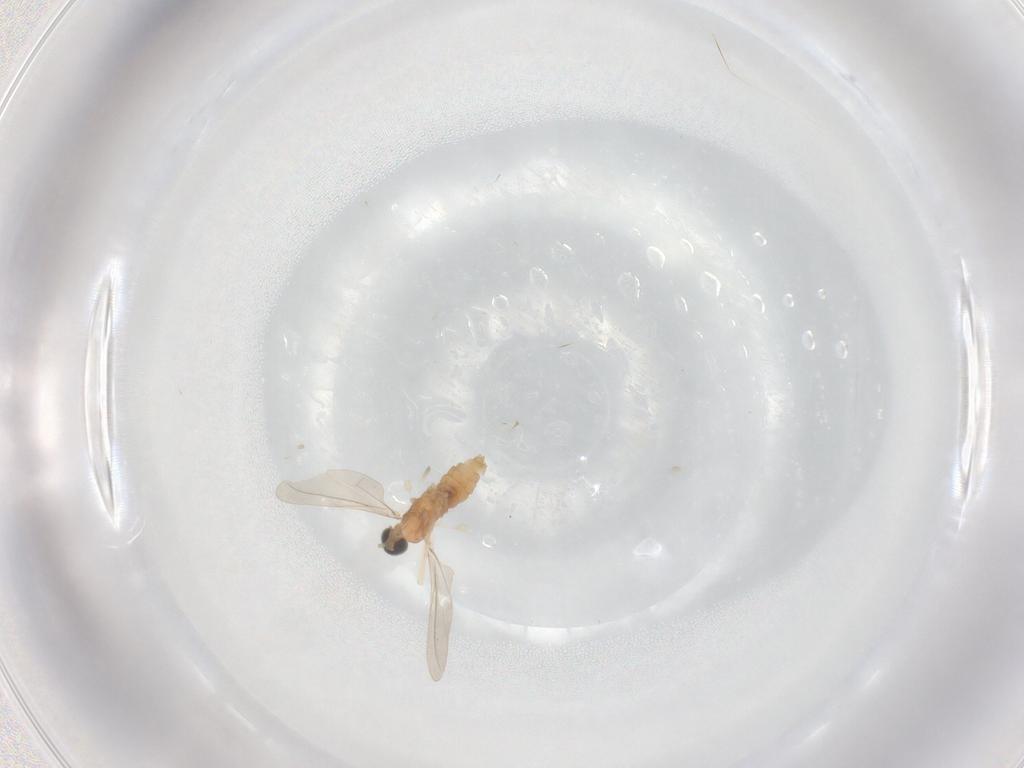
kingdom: Animalia
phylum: Arthropoda
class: Insecta
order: Diptera
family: Cecidomyiidae
